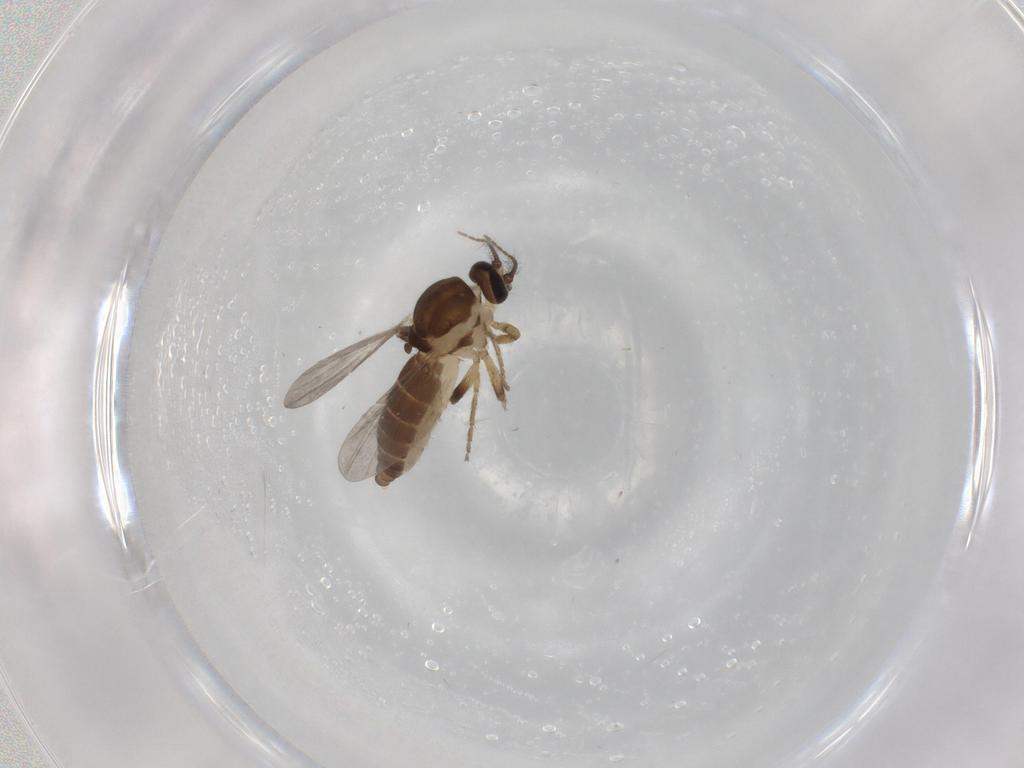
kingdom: Animalia
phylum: Arthropoda
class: Insecta
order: Diptera
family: Ceratopogonidae
